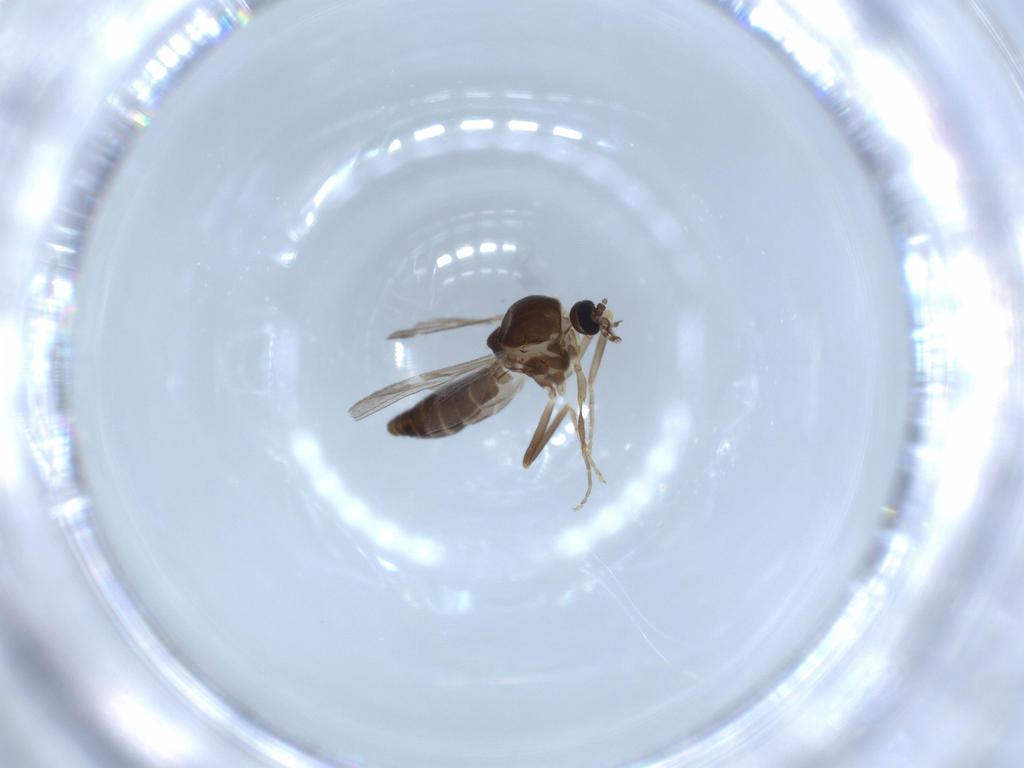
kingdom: Animalia
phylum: Arthropoda
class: Insecta
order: Diptera
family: Ceratopogonidae
